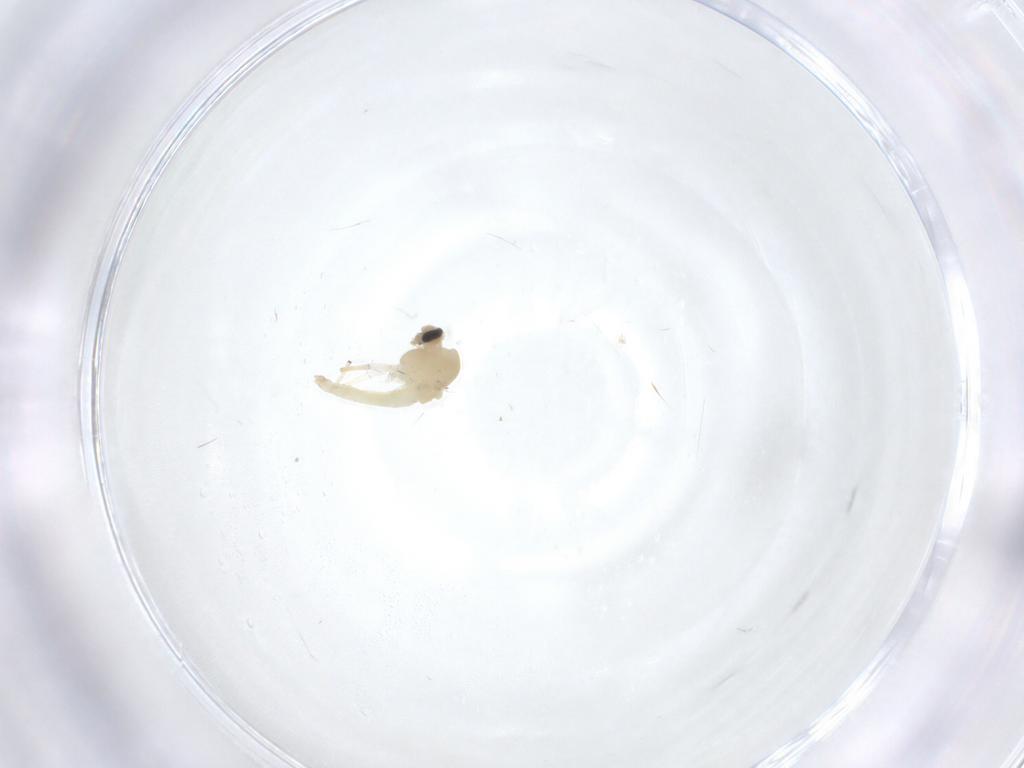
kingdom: Animalia
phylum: Arthropoda
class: Insecta
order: Diptera
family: Chironomidae
